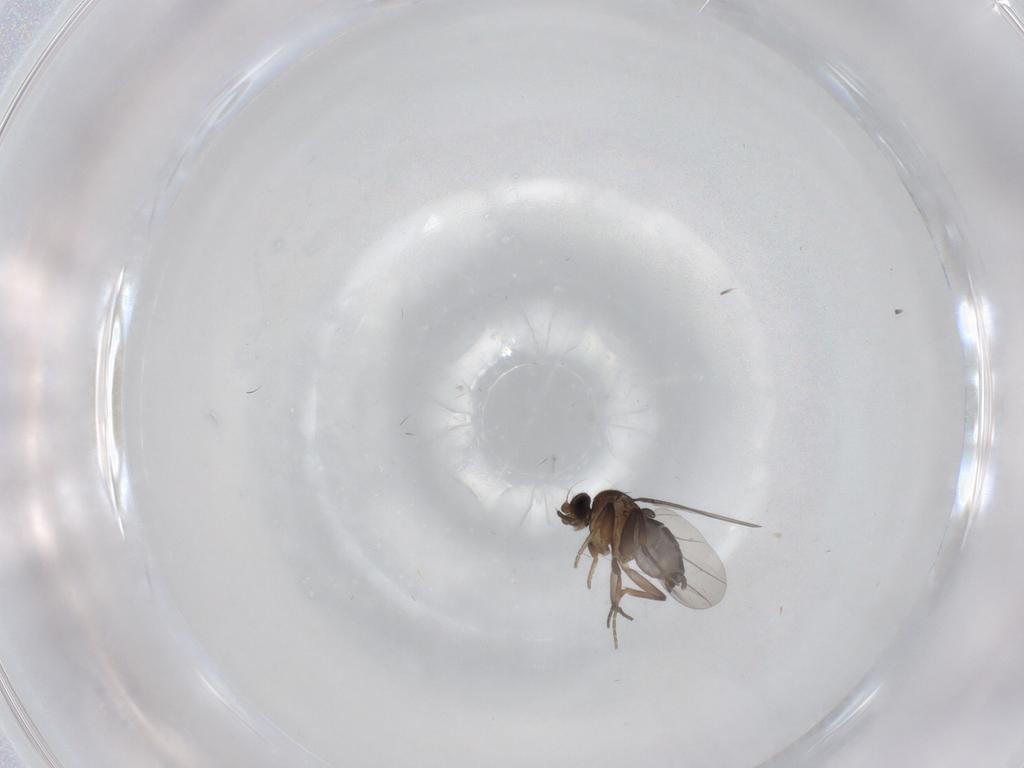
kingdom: Animalia
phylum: Arthropoda
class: Insecta
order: Diptera
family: Phoridae
